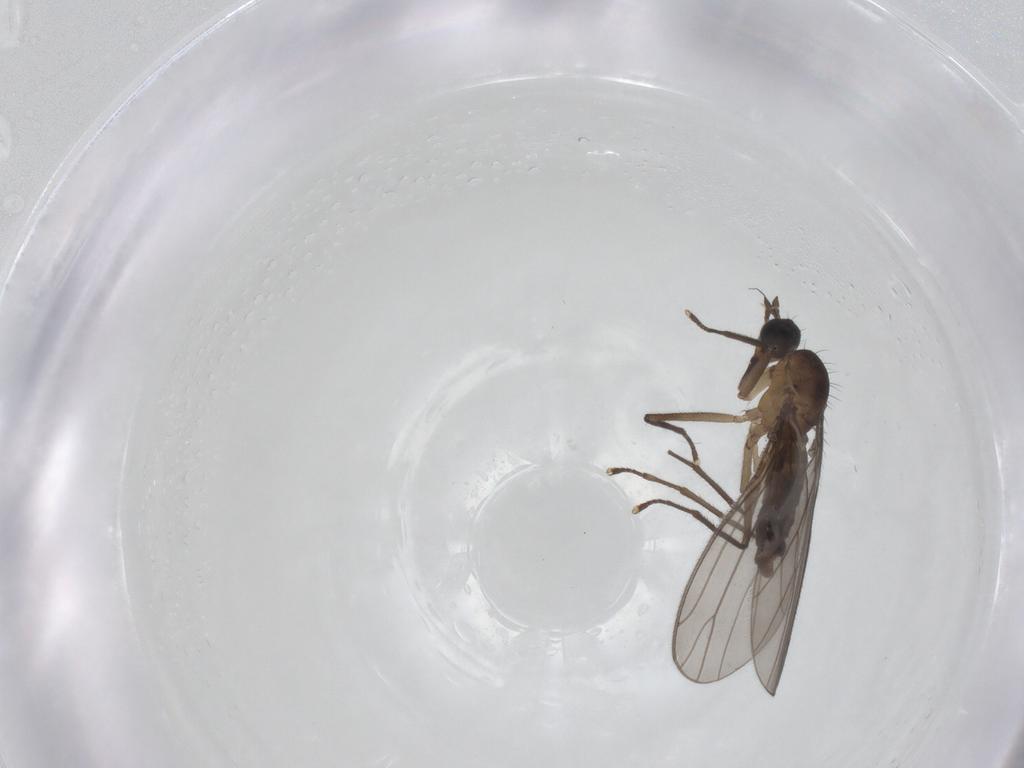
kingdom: Animalia
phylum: Arthropoda
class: Insecta
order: Diptera
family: Empididae
